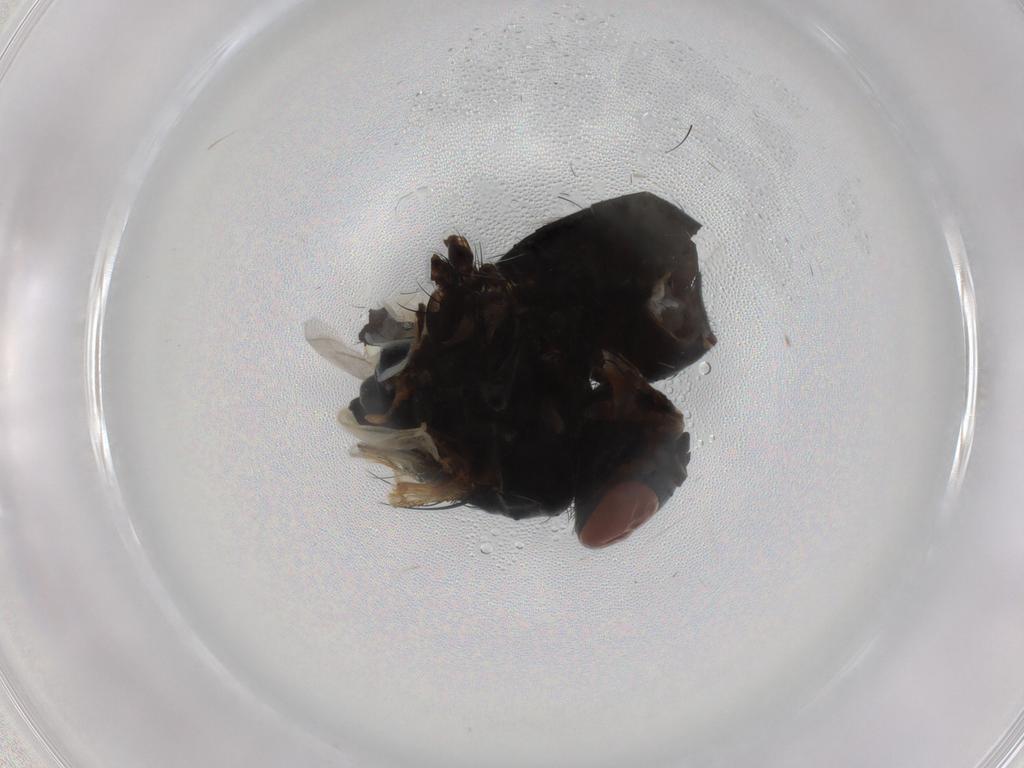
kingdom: Animalia
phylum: Arthropoda
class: Insecta
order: Diptera
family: Tachinidae
